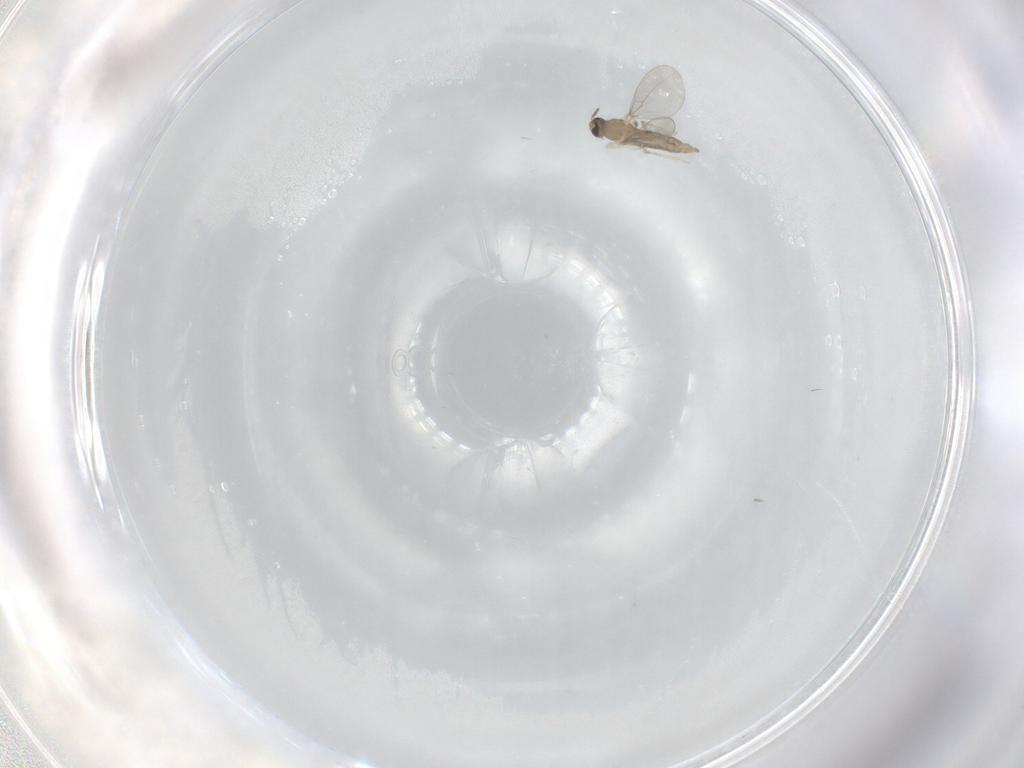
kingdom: Animalia
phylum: Arthropoda
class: Insecta
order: Diptera
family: Cecidomyiidae
